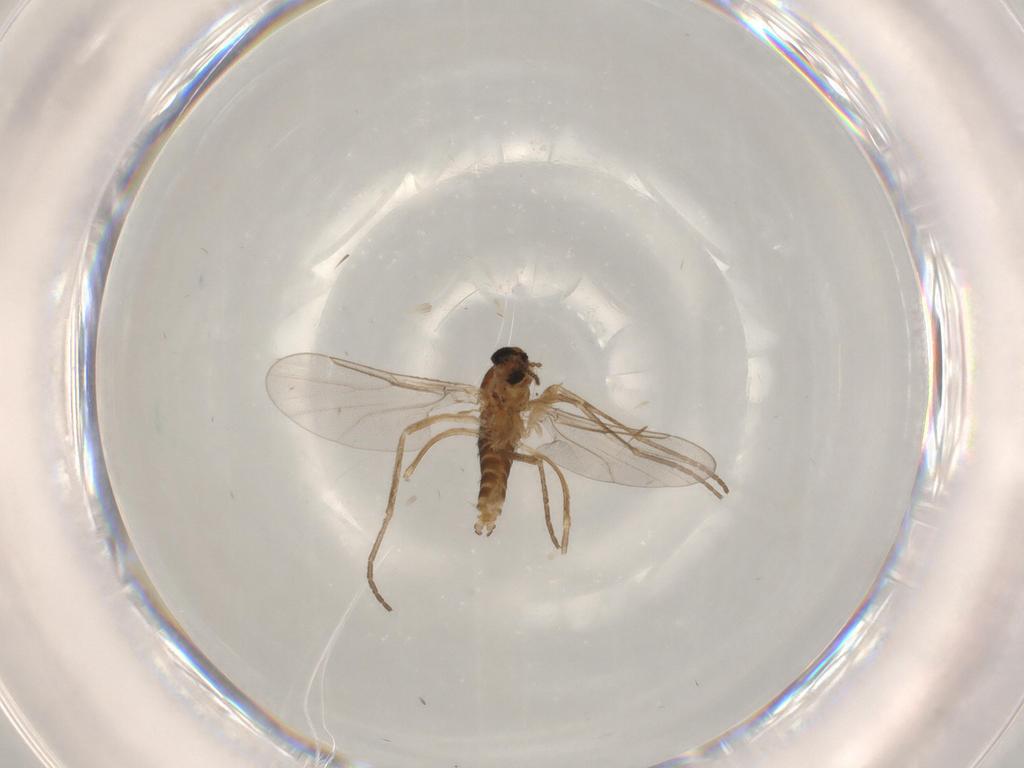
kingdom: Animalia
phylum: Arthropoda
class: Insecta
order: Diptera
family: Cecidomyiidae
